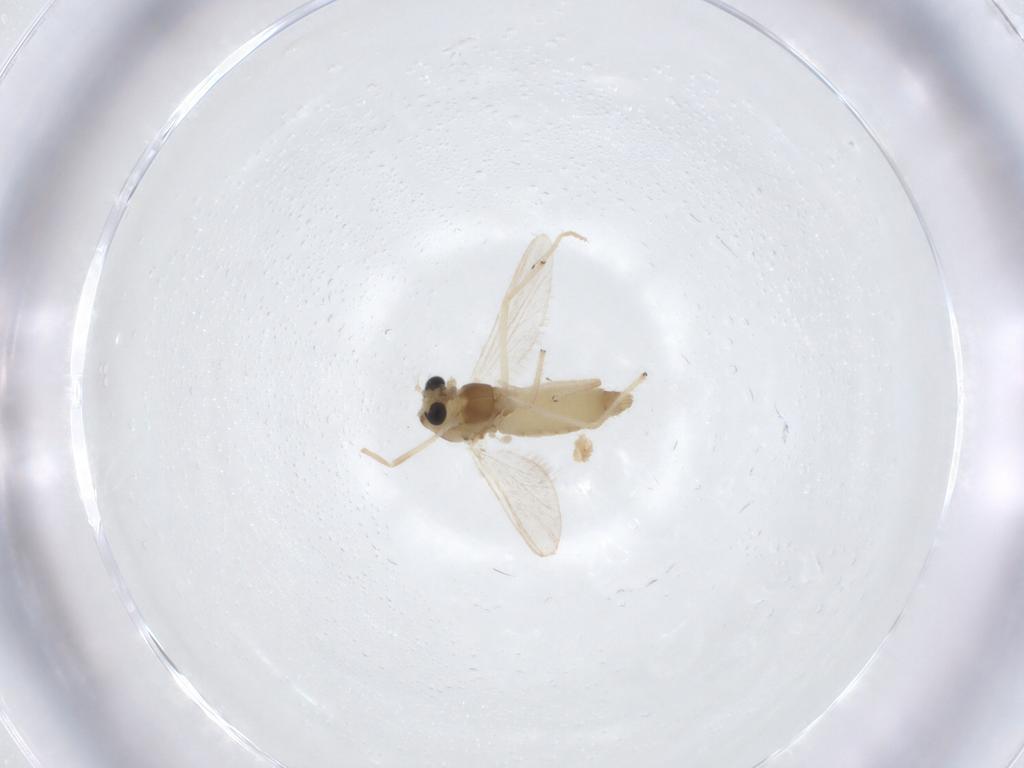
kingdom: Animalia
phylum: Arthropoda
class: Insecta
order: Diptera
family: Chironomidae
